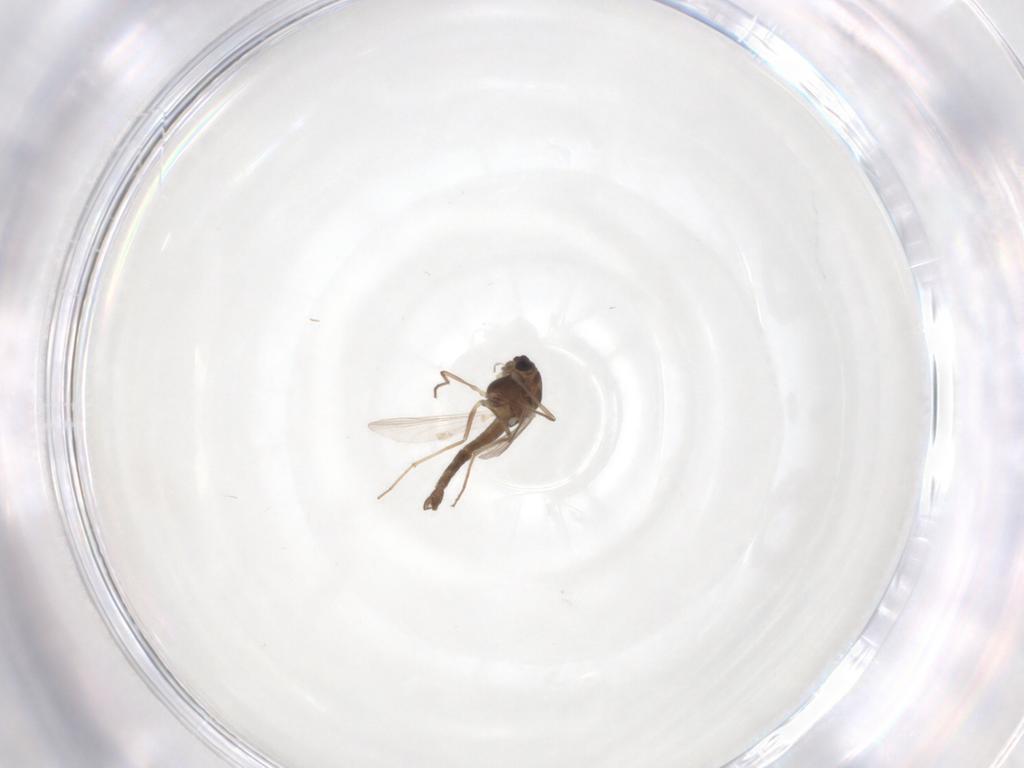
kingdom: Animalia
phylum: Arthropoda
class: Insecta
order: Diptera
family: Chironomidae
